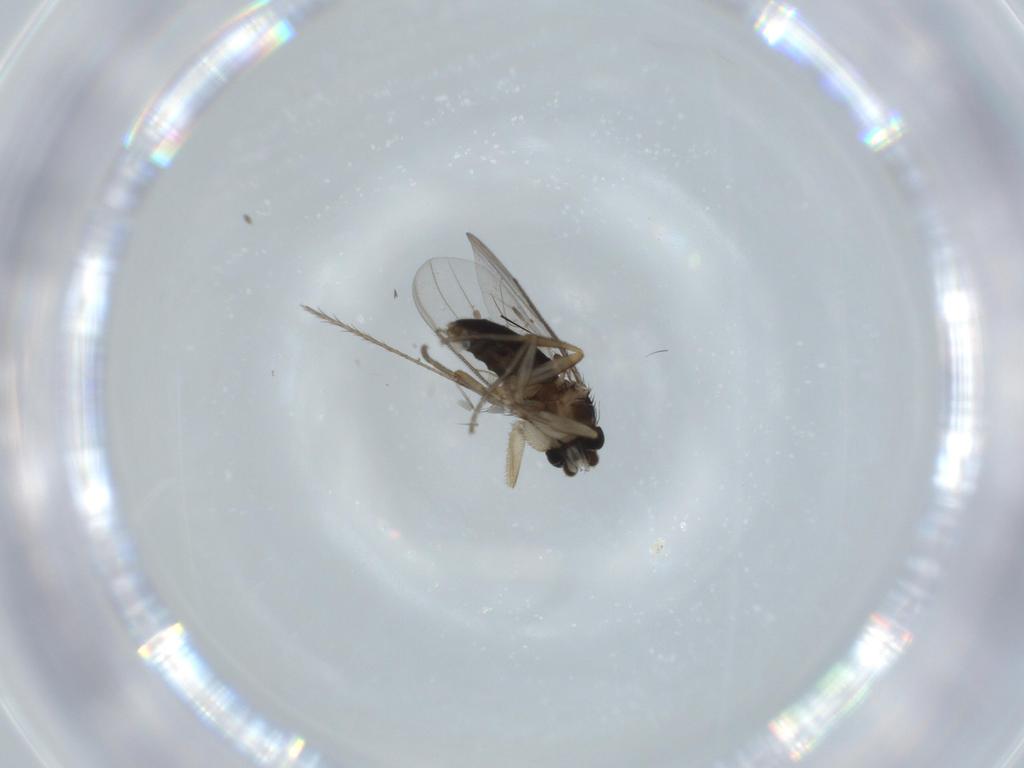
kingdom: Animalia
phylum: Arthropoda
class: Insecta
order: Diptera
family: Phoridae
